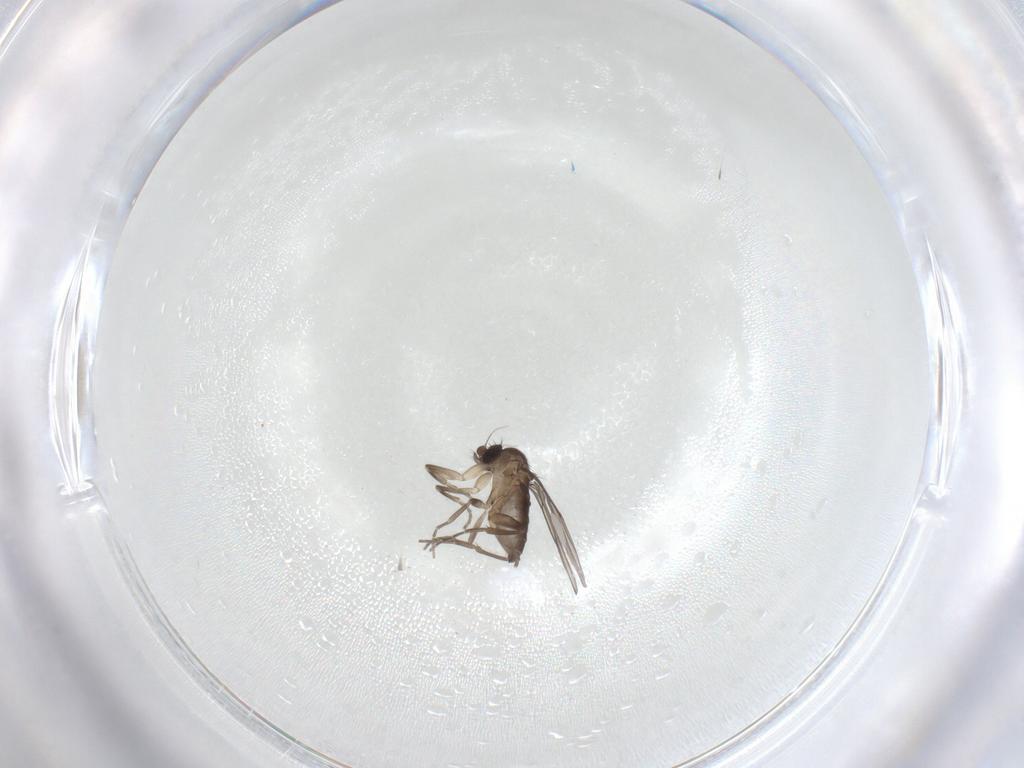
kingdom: Animalia
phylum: Arthropoda
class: Insecta
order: Diptera
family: Phoridae
